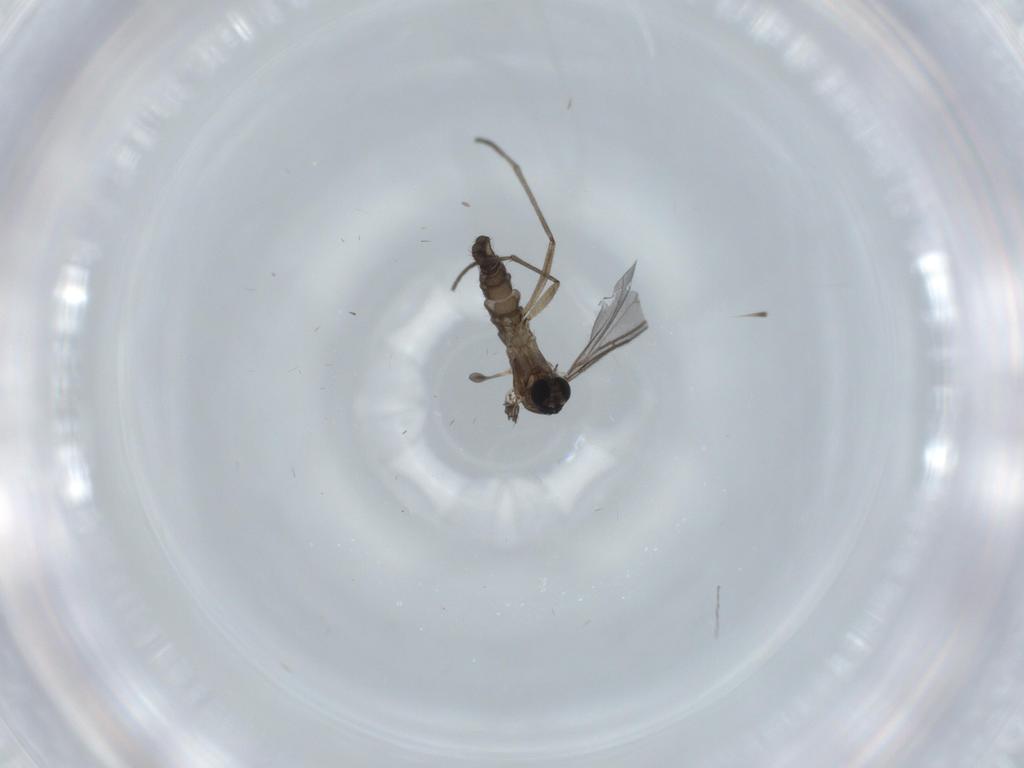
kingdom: Animalia
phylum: Arthropoda
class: Insecta
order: Diptera
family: Sciaridae
